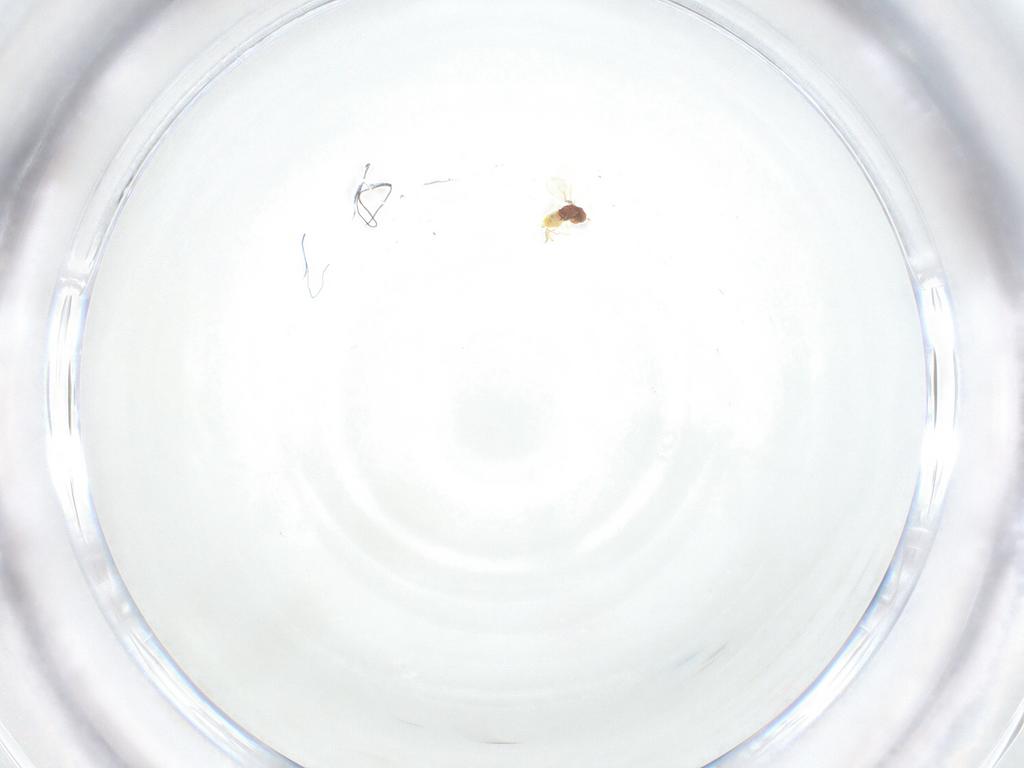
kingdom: Animalia
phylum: Arthropoda
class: Insecta
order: Hymenoptera
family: Aphelinidae
